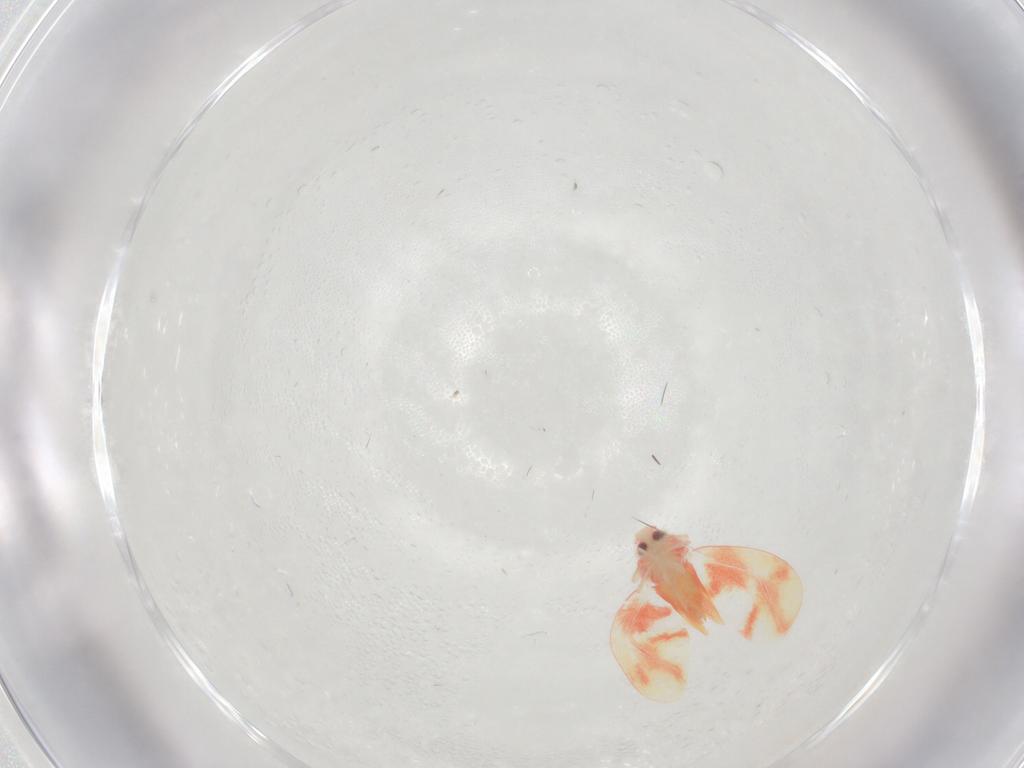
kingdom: Animalia
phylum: Arthropoda
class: Insecta
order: Hemiptera
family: Aleyrodidae
